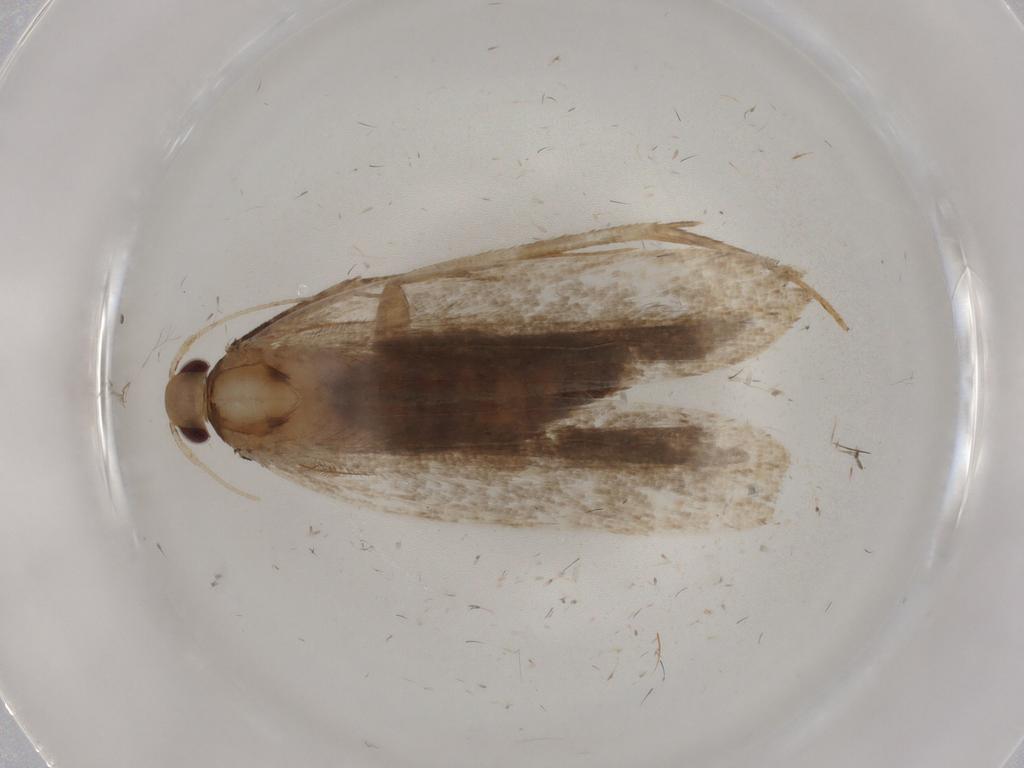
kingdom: Animalia
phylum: Arthropoda
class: Insecta
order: Lepidoptera
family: Gelechiidae
